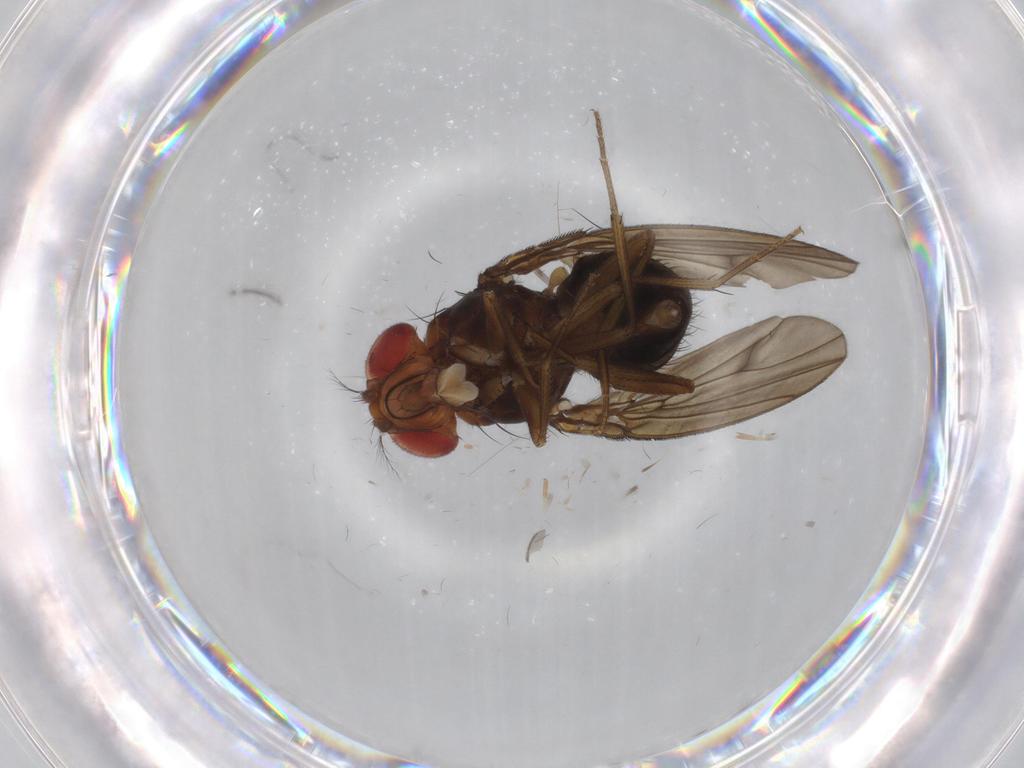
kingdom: Animalia
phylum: Arthropoda
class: Insecta
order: Diptera
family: Drosophilidae
